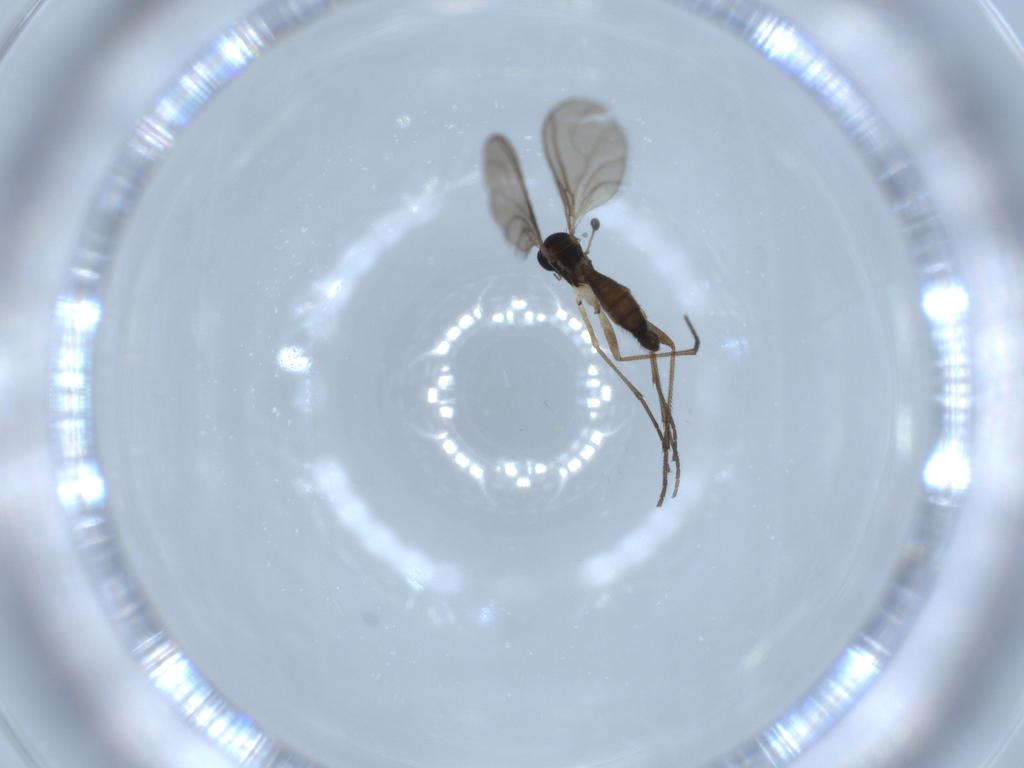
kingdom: Animalia
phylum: Arthropoda
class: Insecta
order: Diptera
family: Sciaridae
